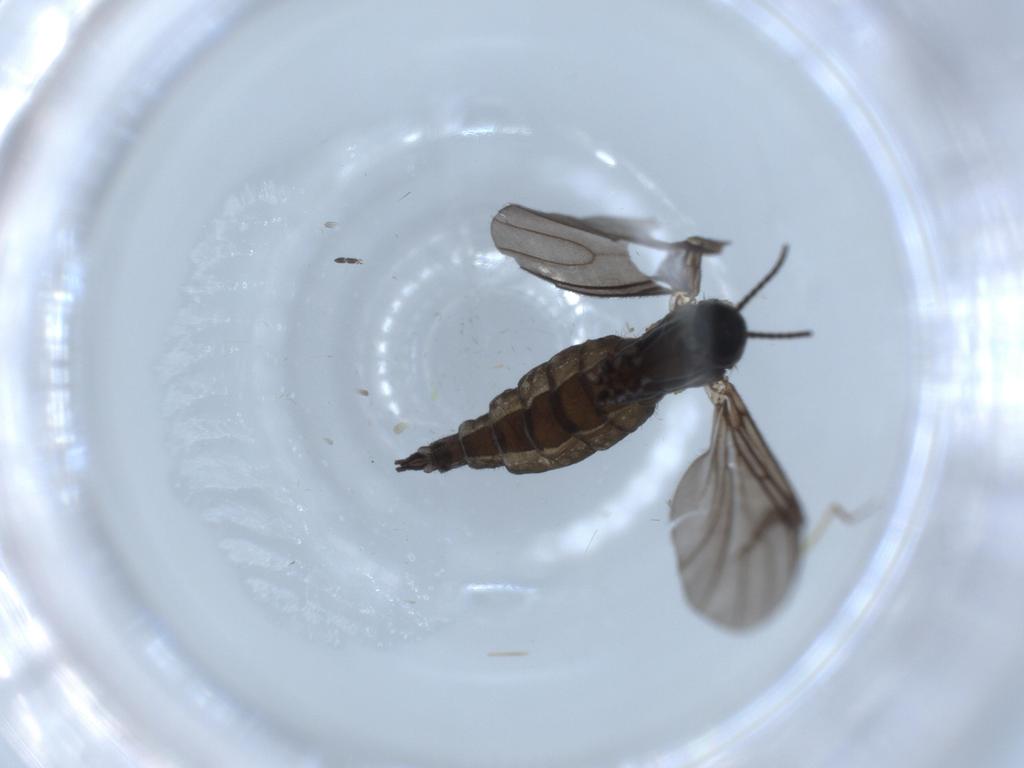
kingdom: Animalia
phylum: Arthropoda
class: Insecta
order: Diptera
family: Sciaridae
